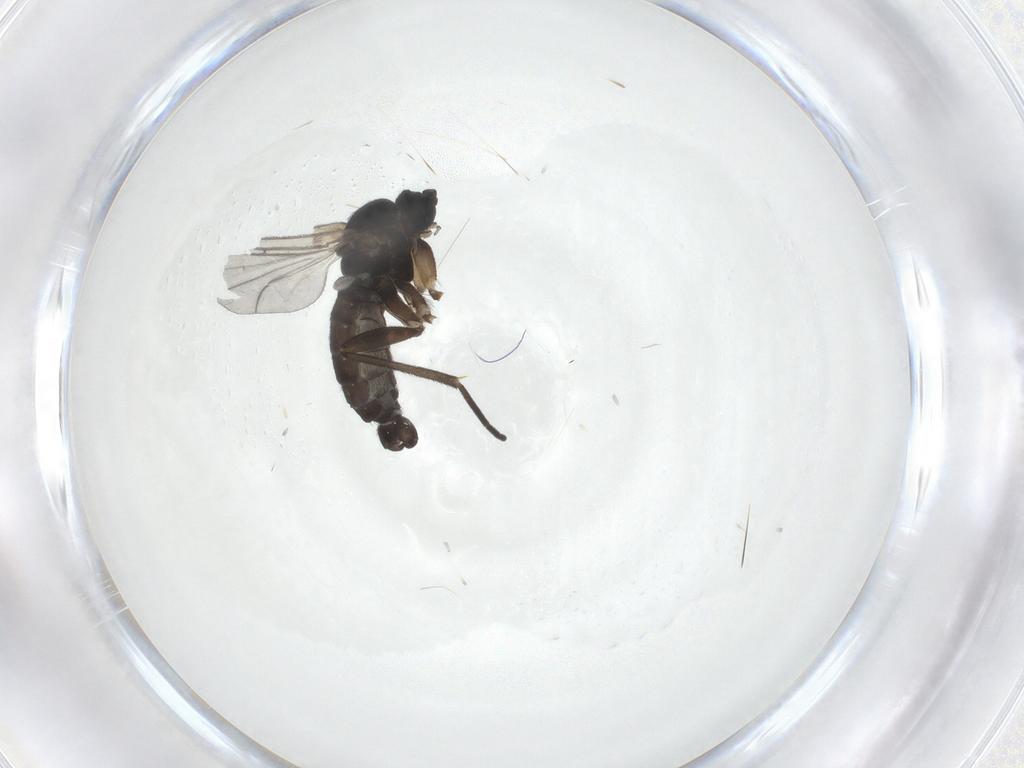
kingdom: Animalia
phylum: Arthropoda
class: Insecta
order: Diptera
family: Sciaridae
